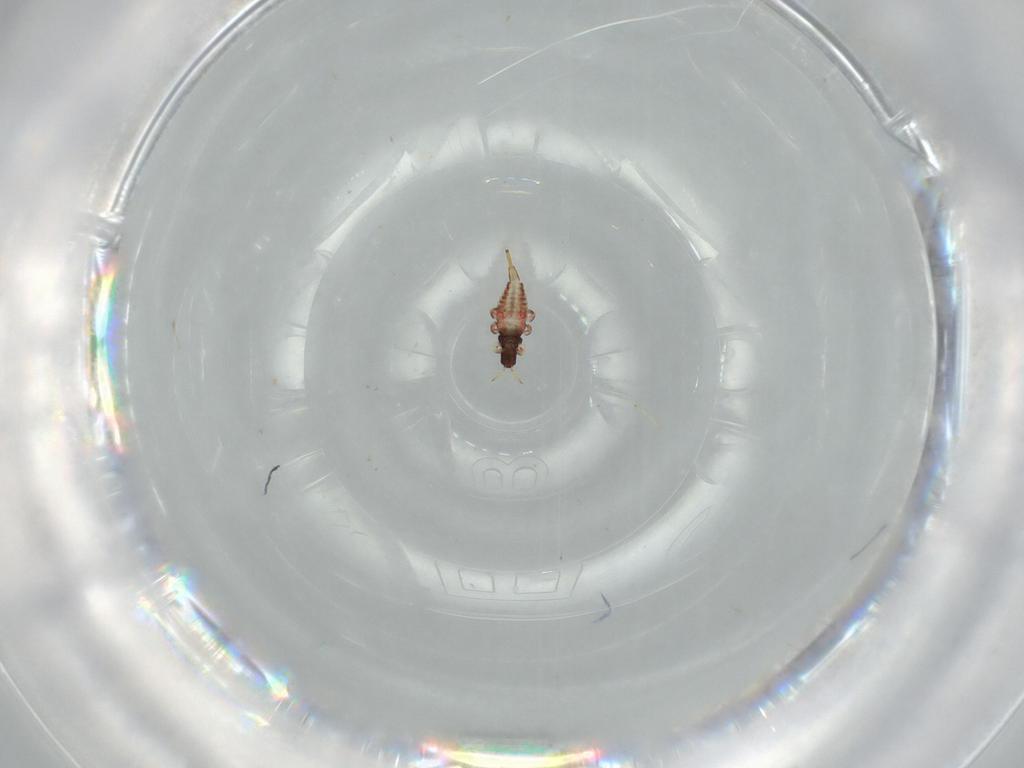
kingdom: Animalia
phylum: Arthropoda
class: Insecta
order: Thysanoptera
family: Phlaeothripidae
